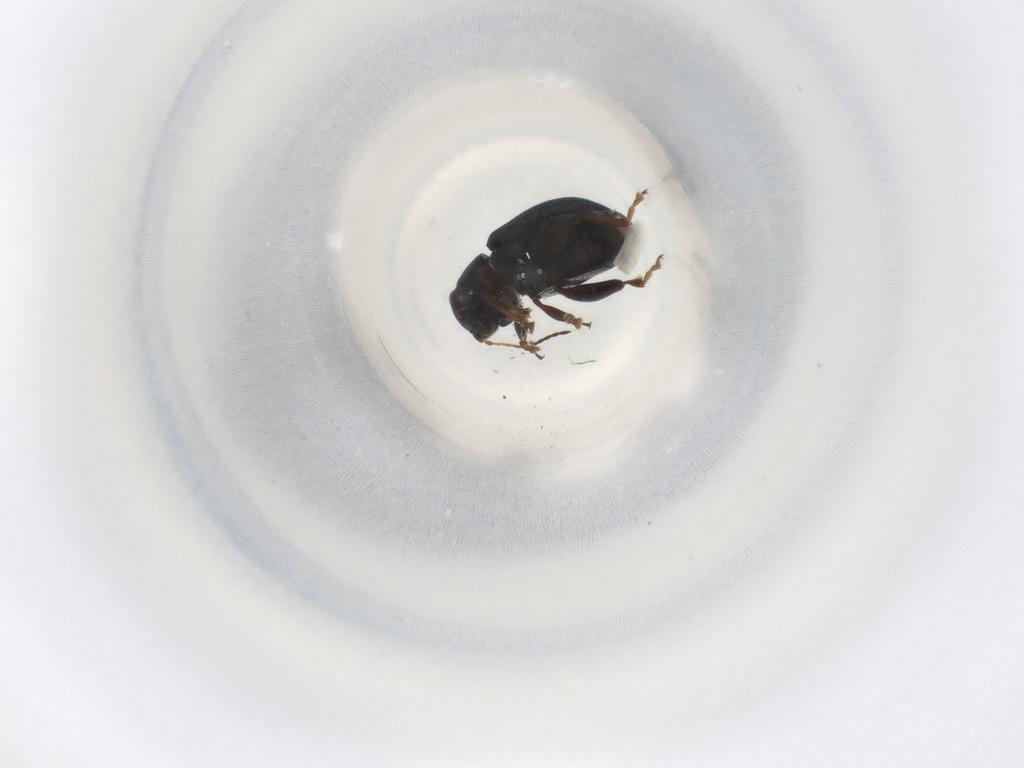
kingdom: Animalia
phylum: Arthropoda
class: Insecta
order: Coleoptera
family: Chrysomelidae
